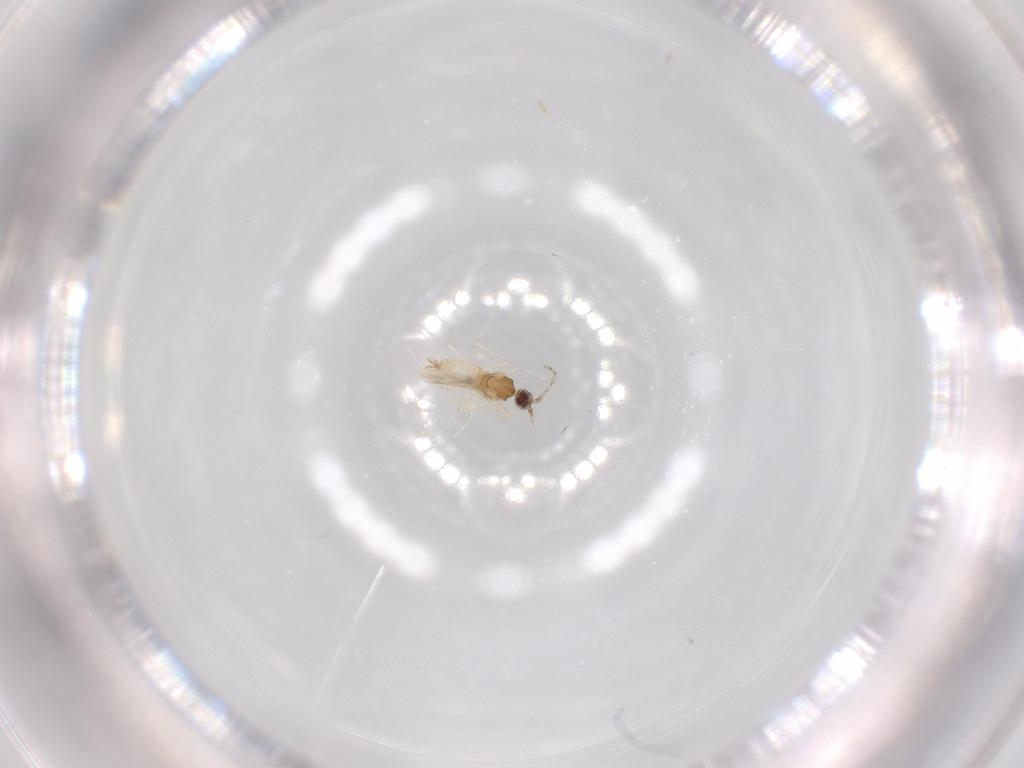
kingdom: Animalia
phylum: Arthropoda
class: Insecta
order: Diptera
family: Cecidomyiidae
